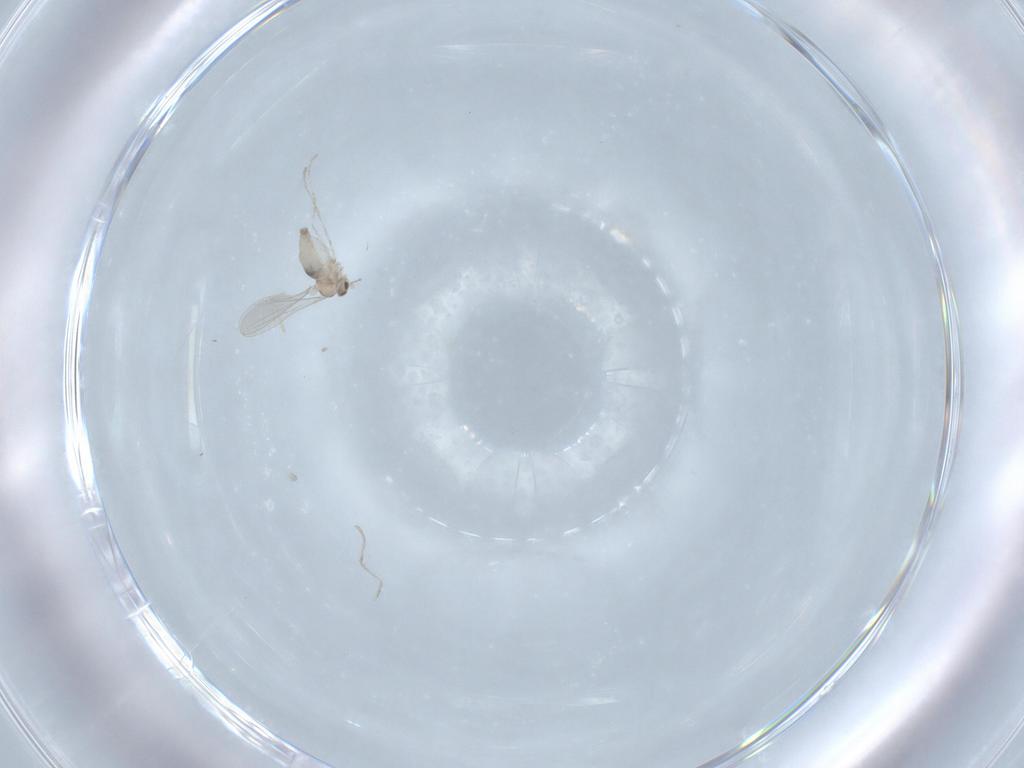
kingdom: Animalia
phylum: Arthropoda
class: Insecta
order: Diptera
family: Cecidomyiidae
